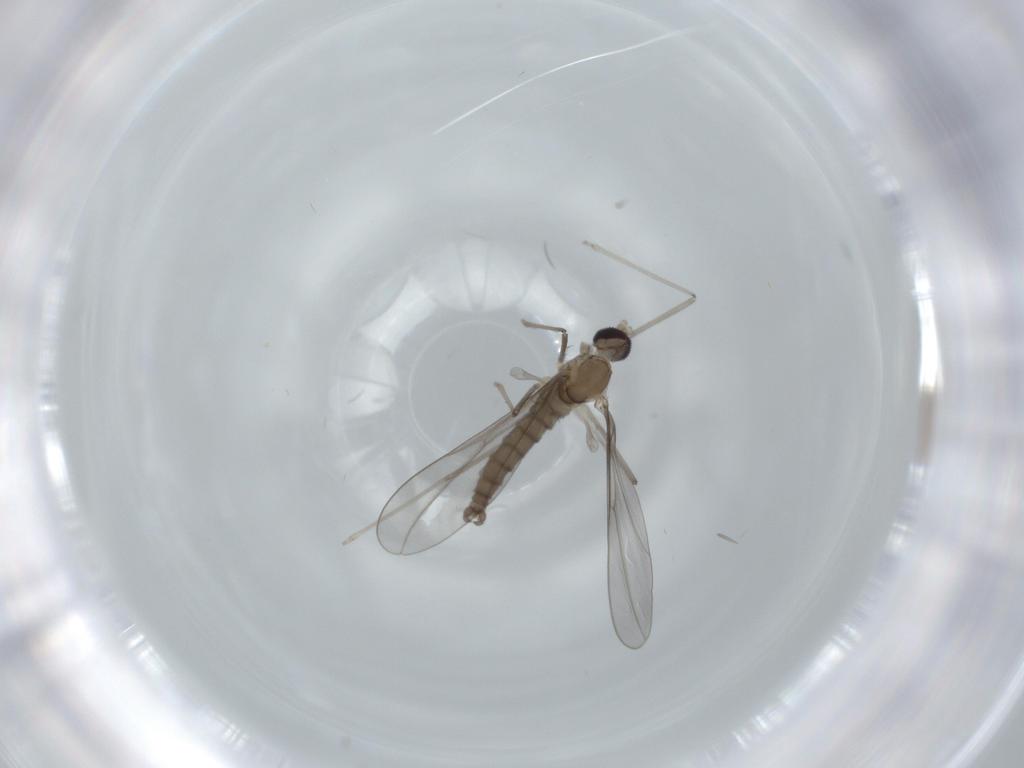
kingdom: Animalia
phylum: Arthropoda
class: Insecta
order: Diptera
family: Cecidomyiidae
